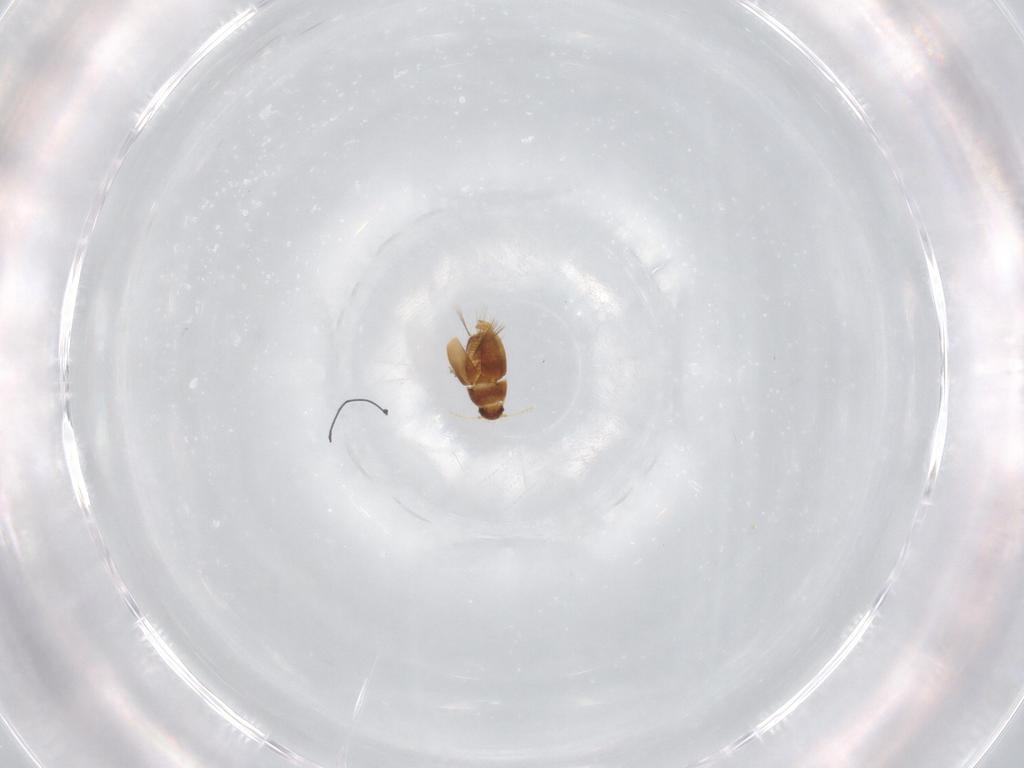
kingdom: Animalia
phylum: Arthropoda
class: Insecta
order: Coleoptera
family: Ptiliidae
